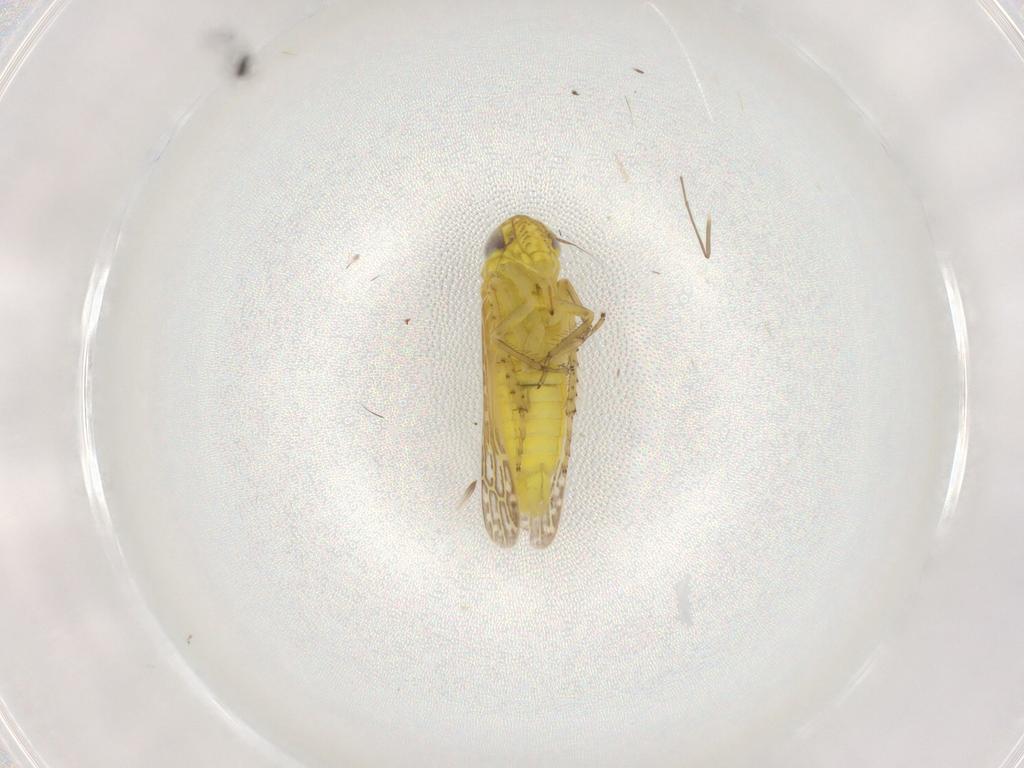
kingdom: Animalia
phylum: Arthropoda
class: Insecta
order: Hemiptera
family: Cicadellidae
